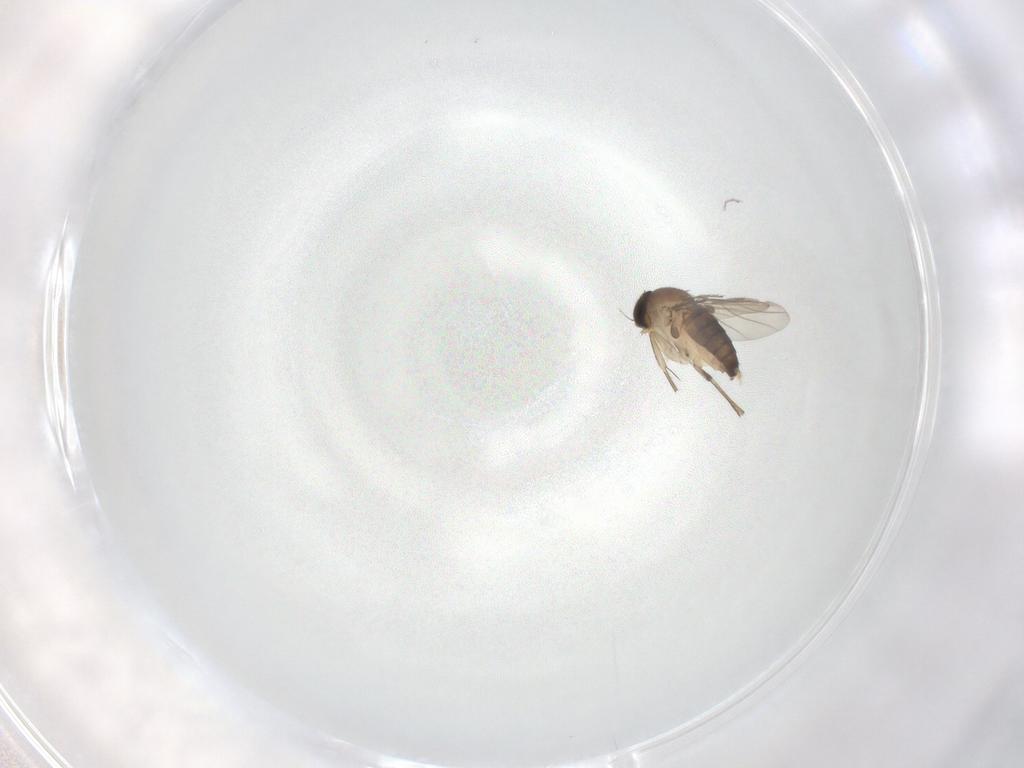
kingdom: Animalia
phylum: Arthropoda
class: Insecta
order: Diptera
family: Phoridae
